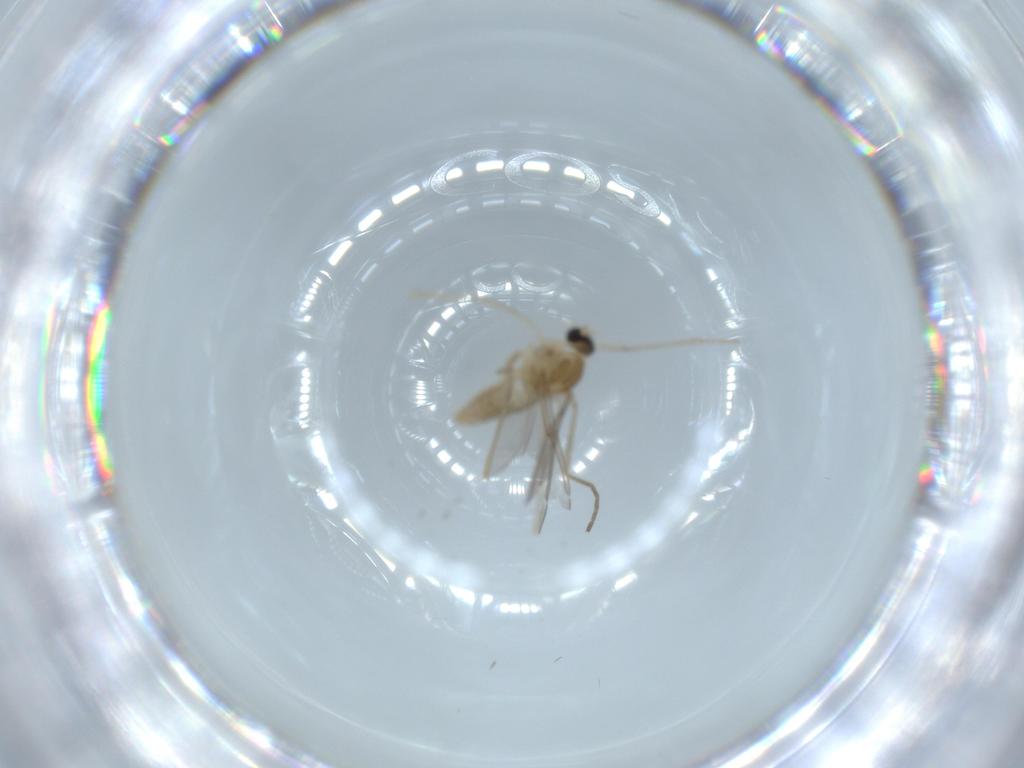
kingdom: Animalia
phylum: Arthropoda
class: Insecta
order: Diptera
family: Cecidomyiidae
